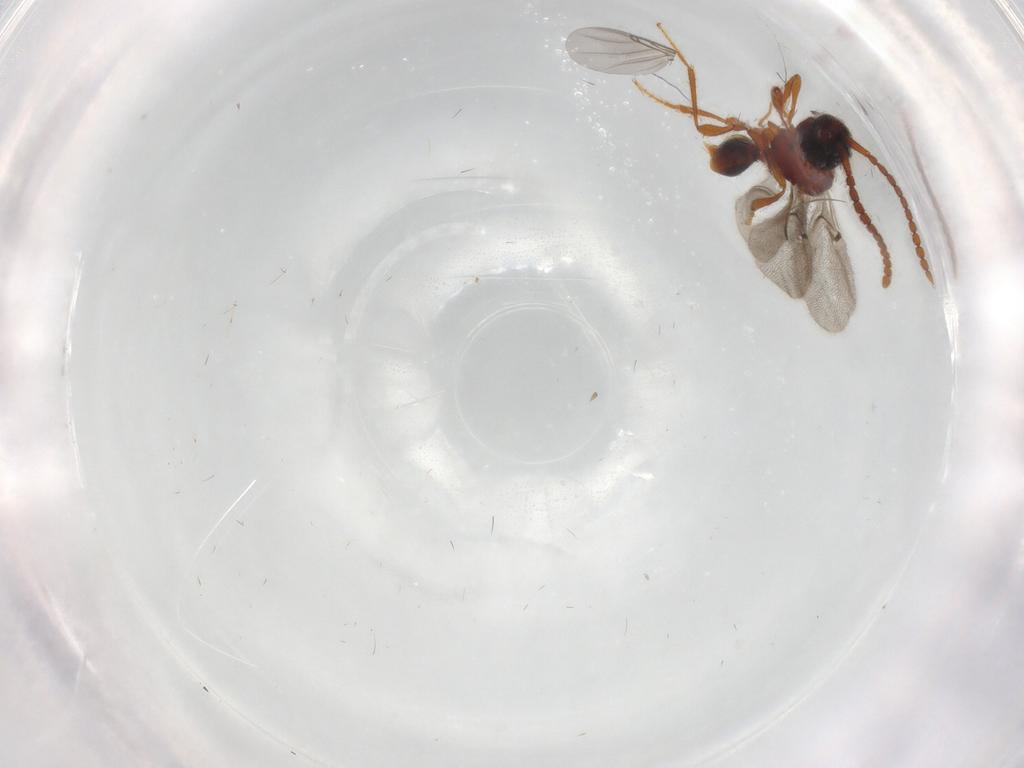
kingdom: Animalia
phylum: Arthropoda
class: Insecta
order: Hymenoptera
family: Diapriidae
